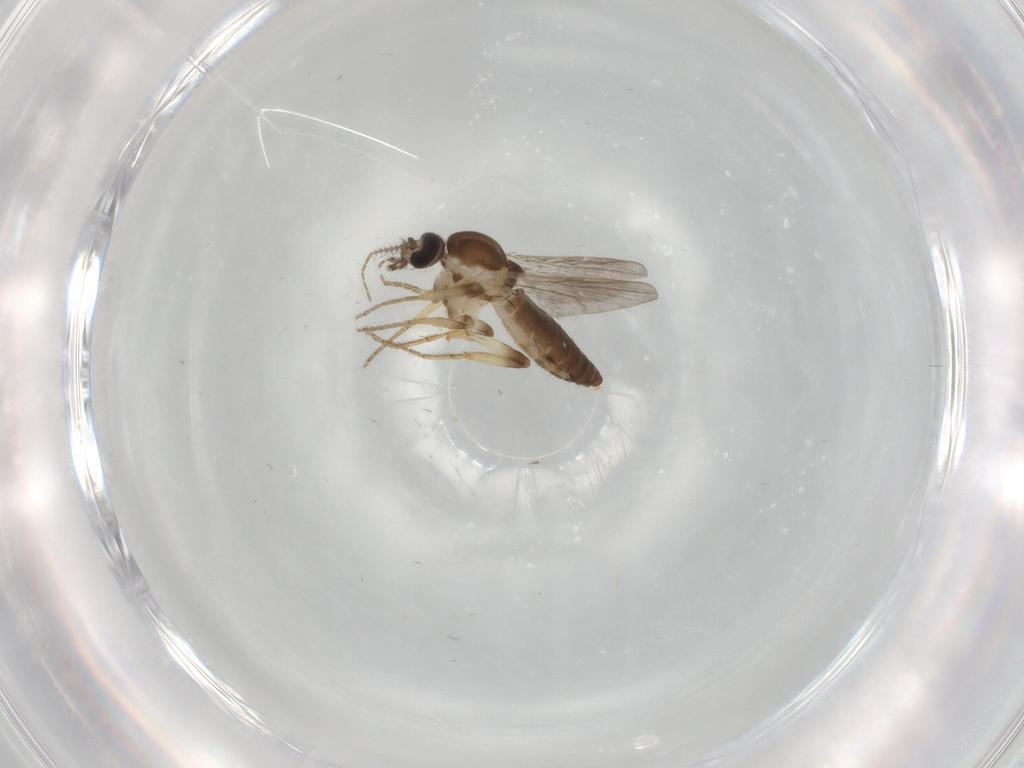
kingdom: Animalia
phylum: Arthropoda
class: Insecta
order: Diptera
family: Ceratopogonidae
